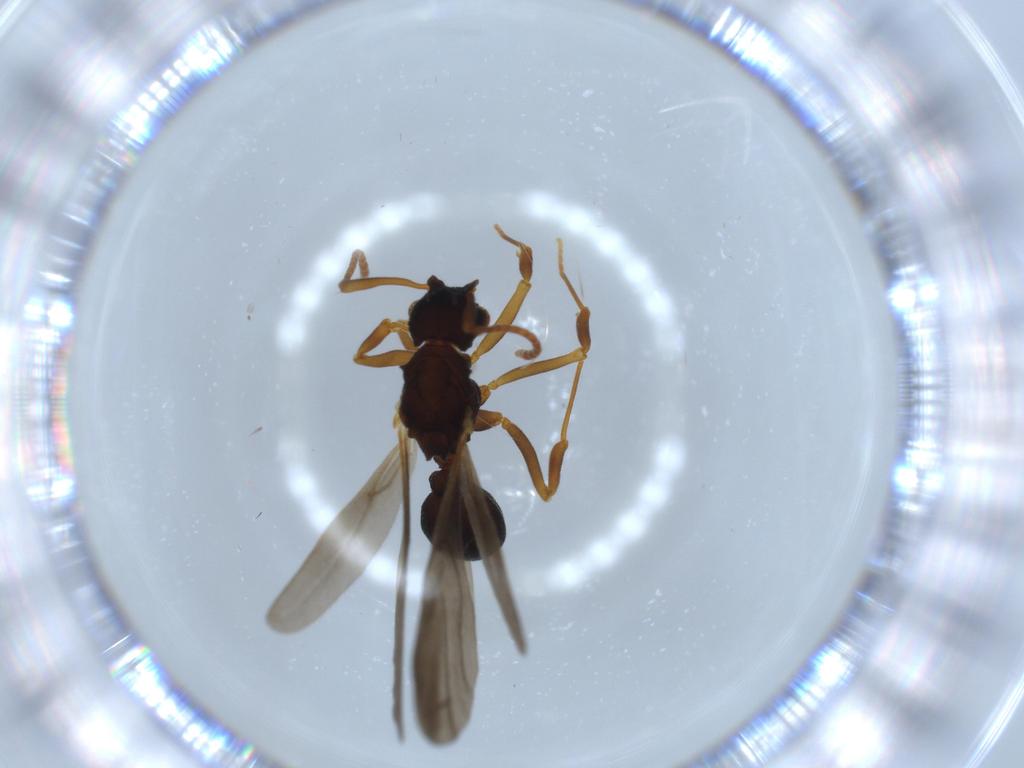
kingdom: Animalia
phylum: Arthropoda
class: Insecta
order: Hymenoptera
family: Formicidae
